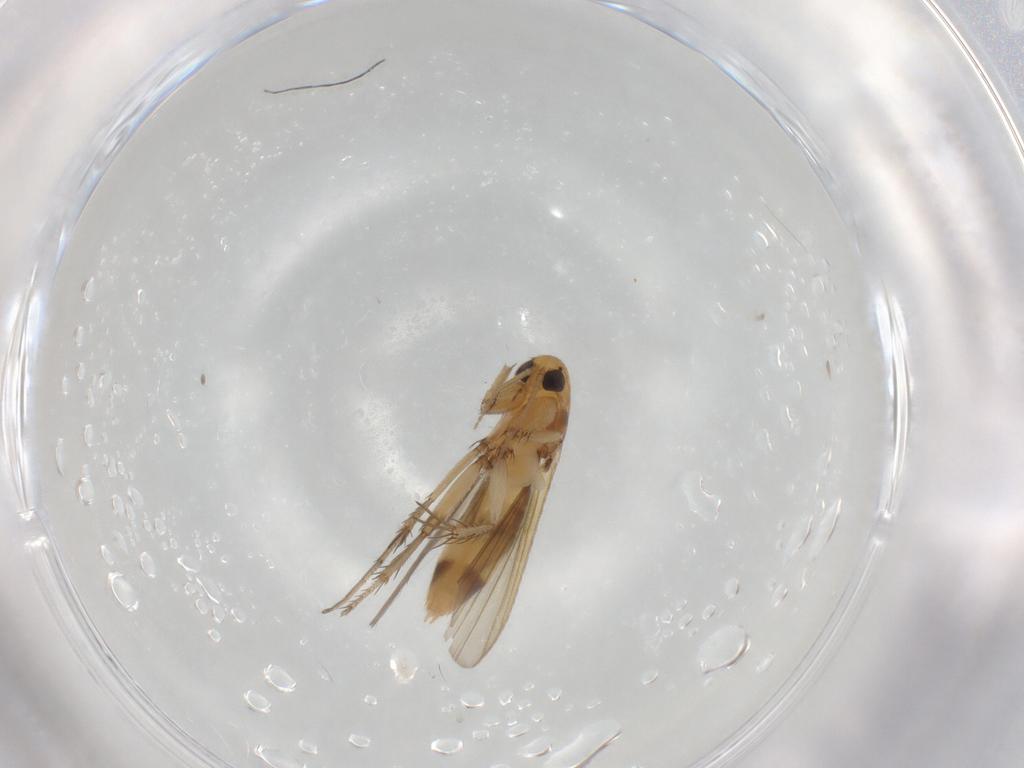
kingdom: Animalia
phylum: Arthropoda
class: Insecta
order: Diptera
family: Mycetophilidae
